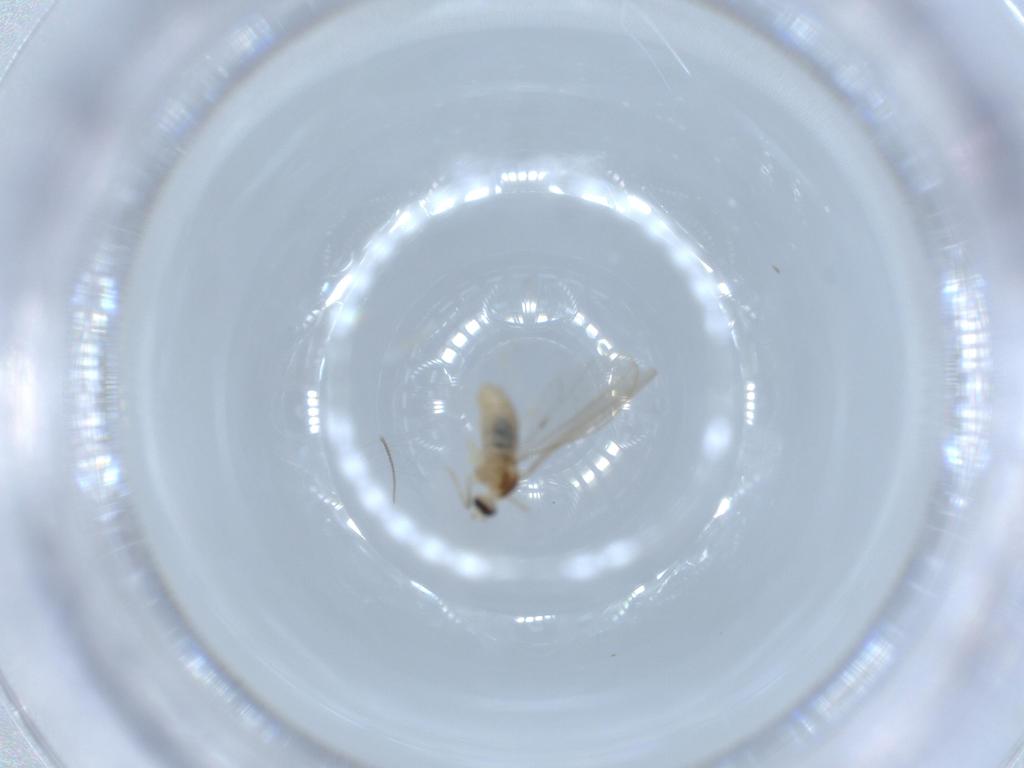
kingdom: Animalia
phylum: Arthropoda
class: Insecta
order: Diptera
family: Cecidomyiidae
